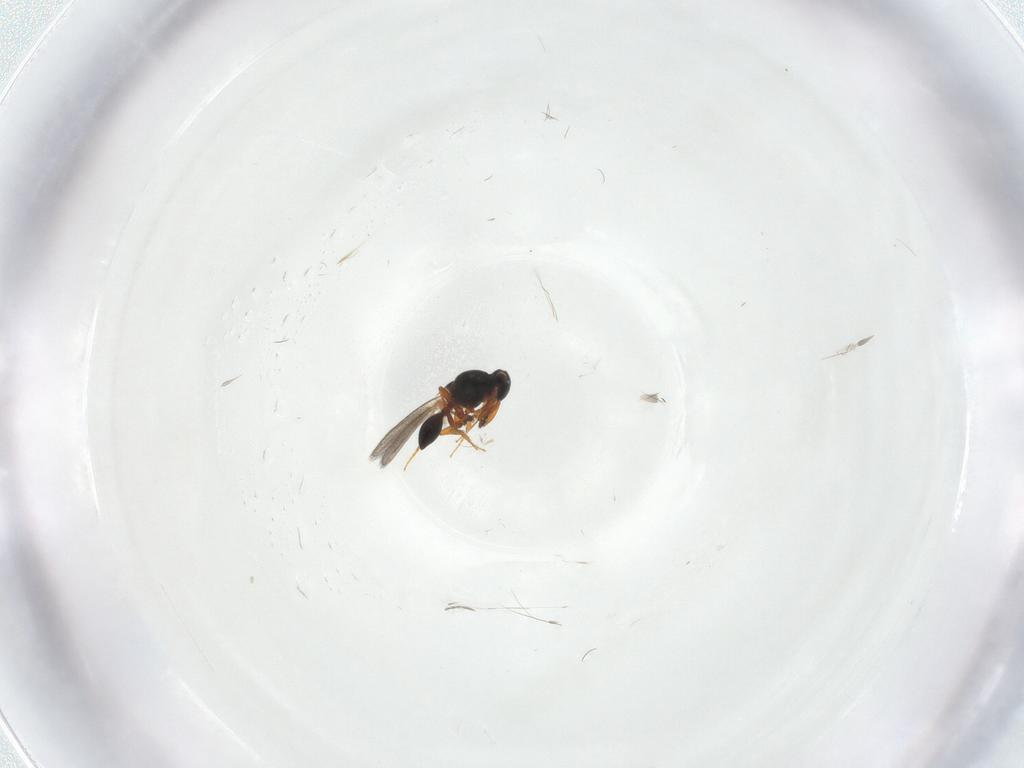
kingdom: Animalia
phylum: Arthropoda
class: Insecta
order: Hymenoptera
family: Platygastridae
